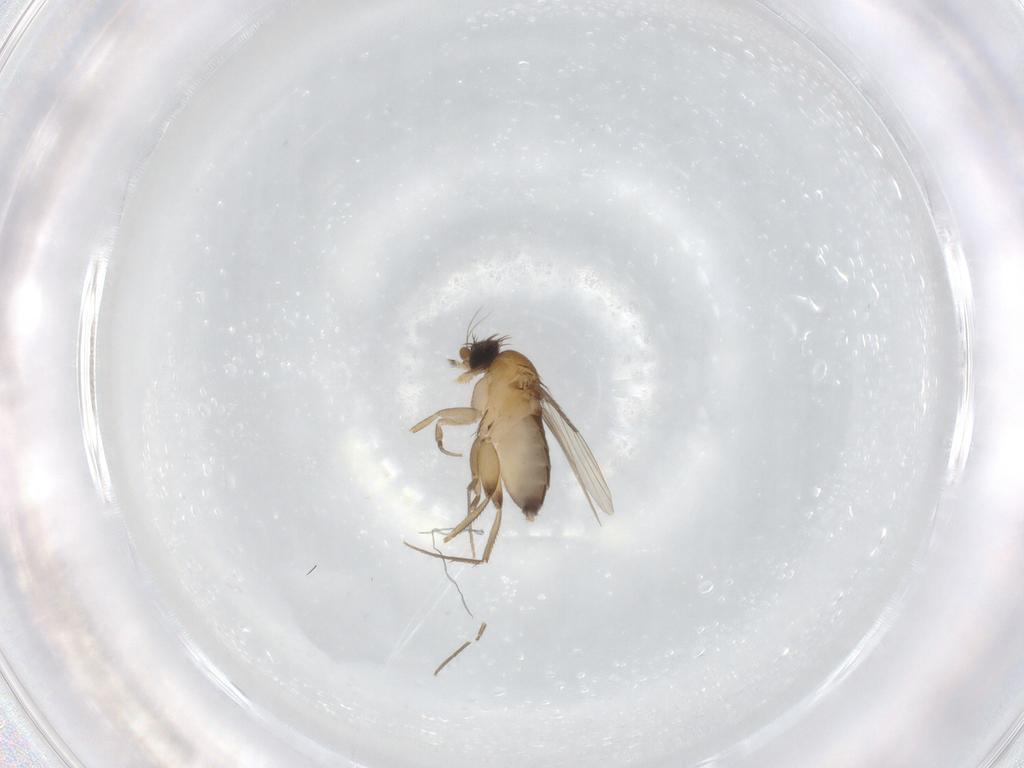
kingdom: Animalia
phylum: Arthropoda
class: Insecta
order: Diptera
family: Phoridae
